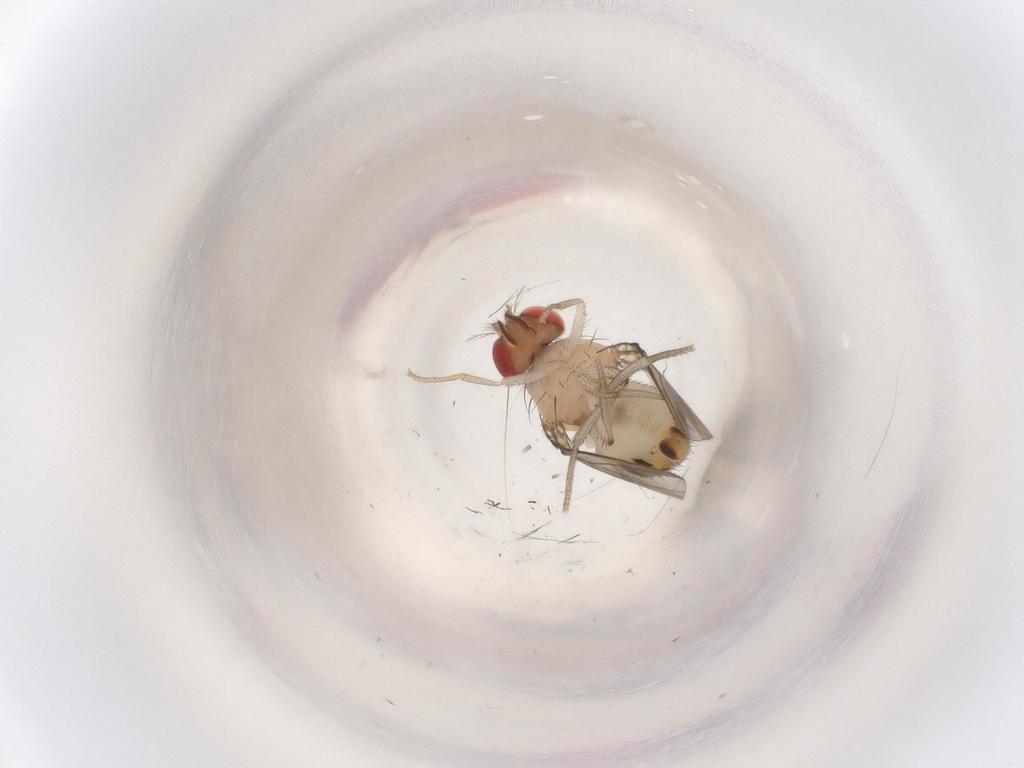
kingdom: Animalia
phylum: Arthropoda
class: Insecta
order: Diptera
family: Drosophilidae
